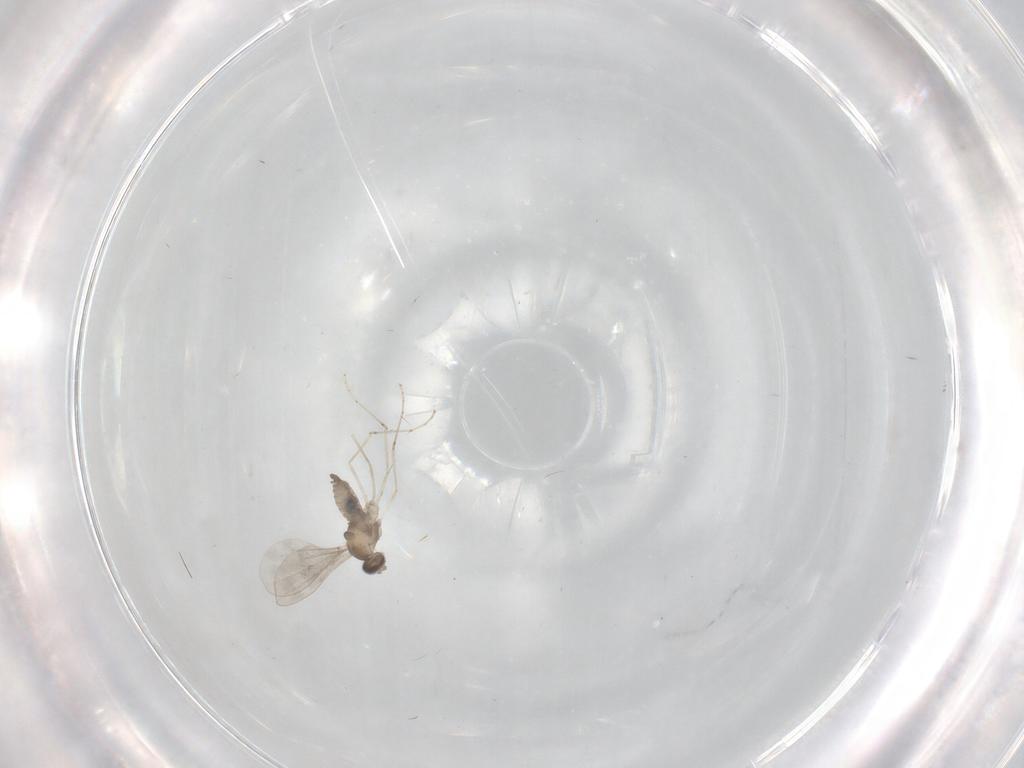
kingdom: Animalia
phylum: Arthropoda
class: Insecta
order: Diptera
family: Cecidomyiidae
